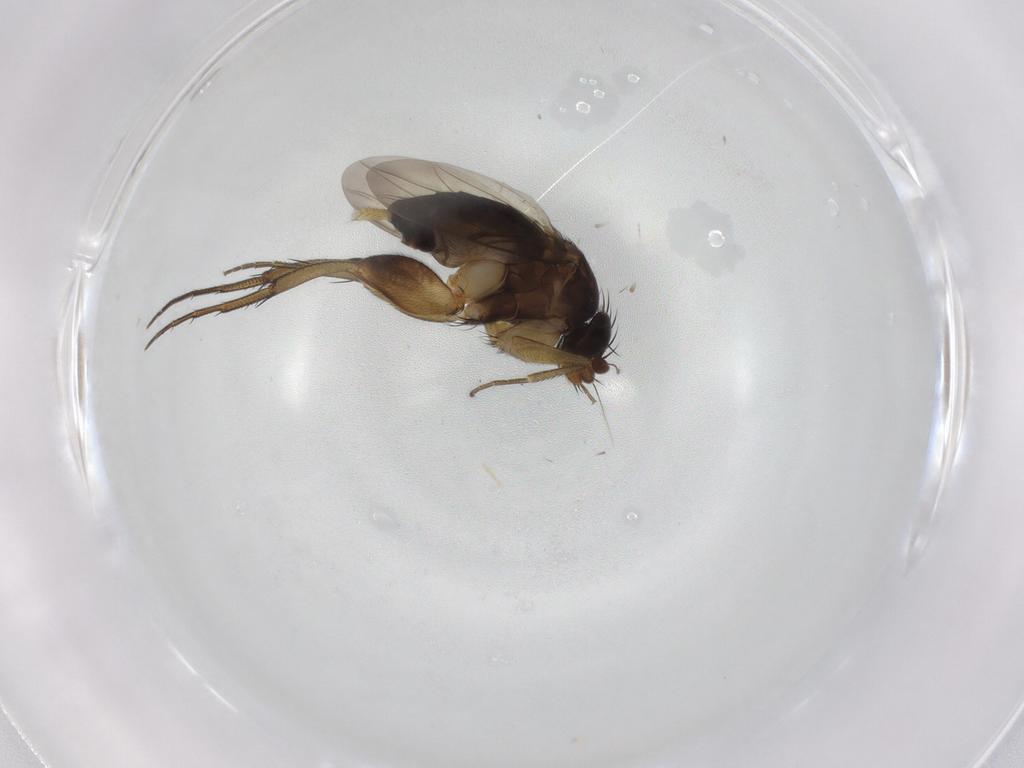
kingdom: Animalia
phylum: Arthropoda
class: Insecta
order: Diptera
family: Phoridae
